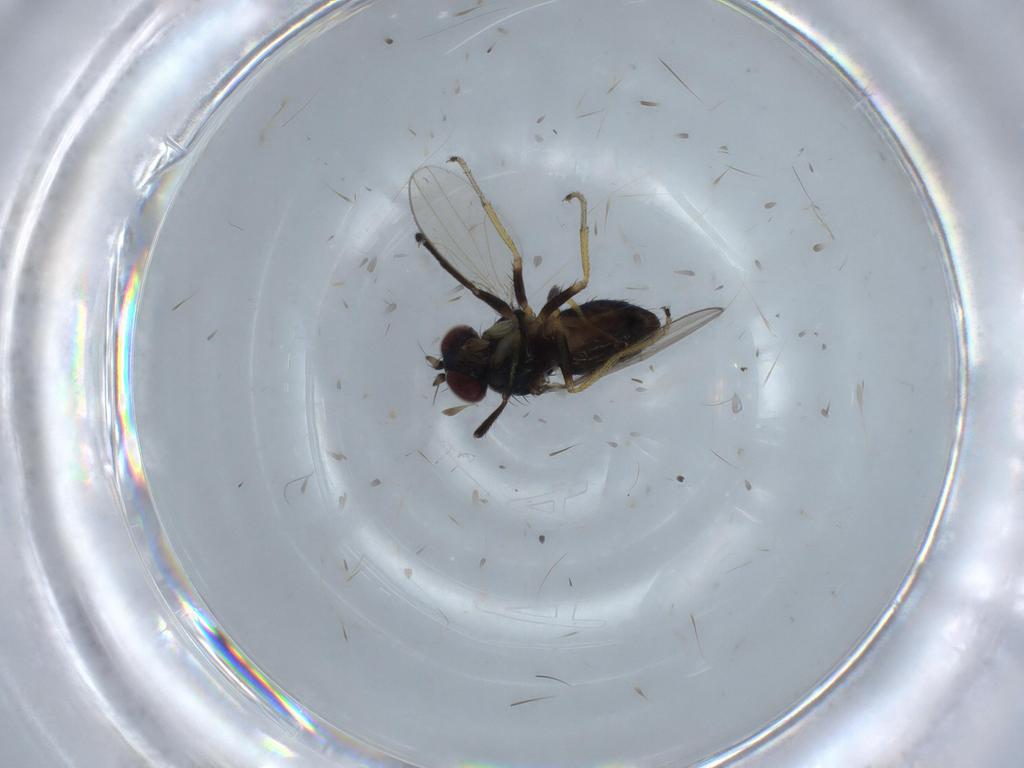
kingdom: Animalia
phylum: Arthropoda
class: Insecta
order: Diptera
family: Ephydridae
